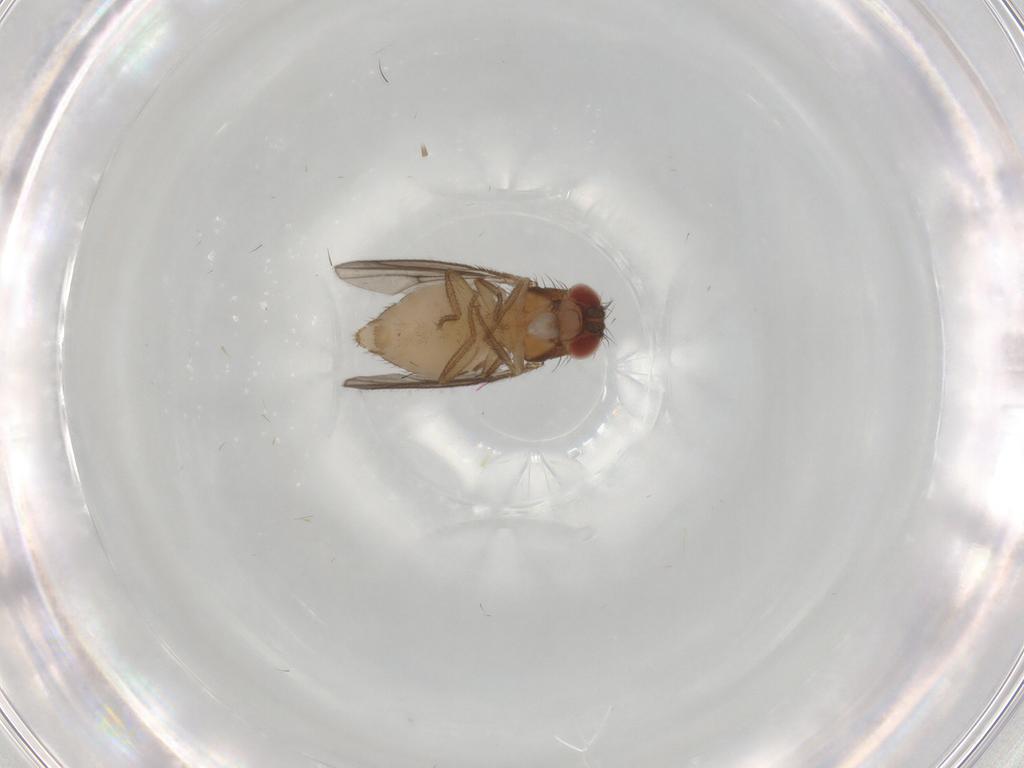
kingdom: Animalia
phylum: Arthropoda
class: Insecta
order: Diptera
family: Drosophilidae
